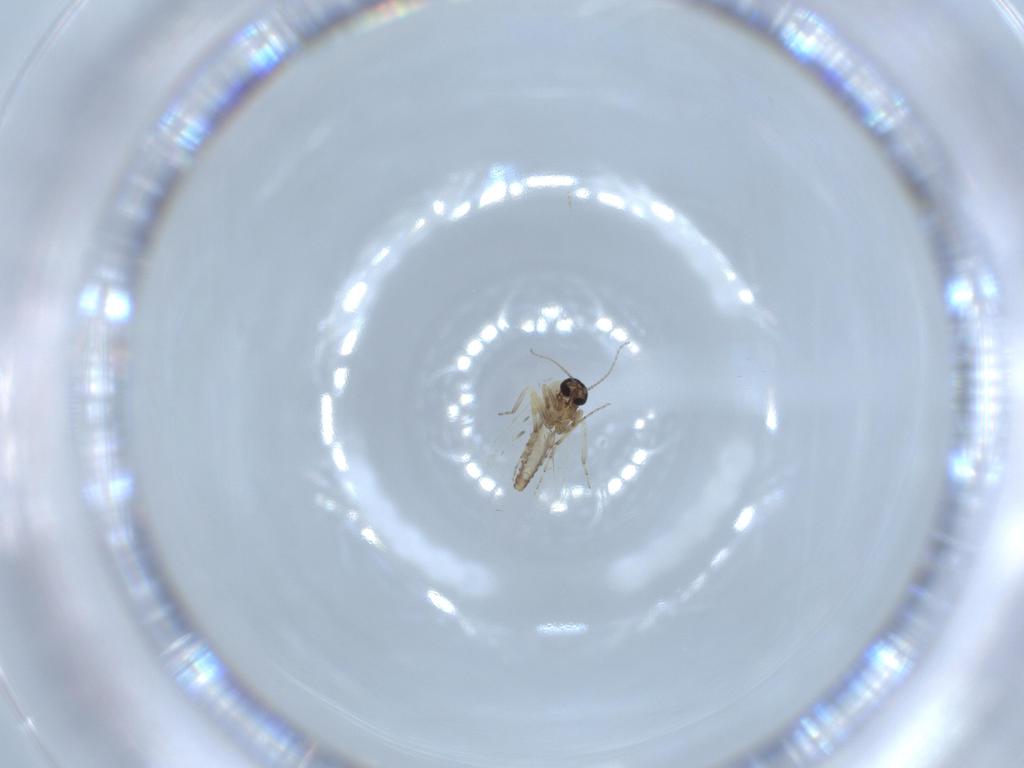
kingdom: Animalia
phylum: Arthropoda
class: Insecta
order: Diptera
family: Ceratopogonidae
